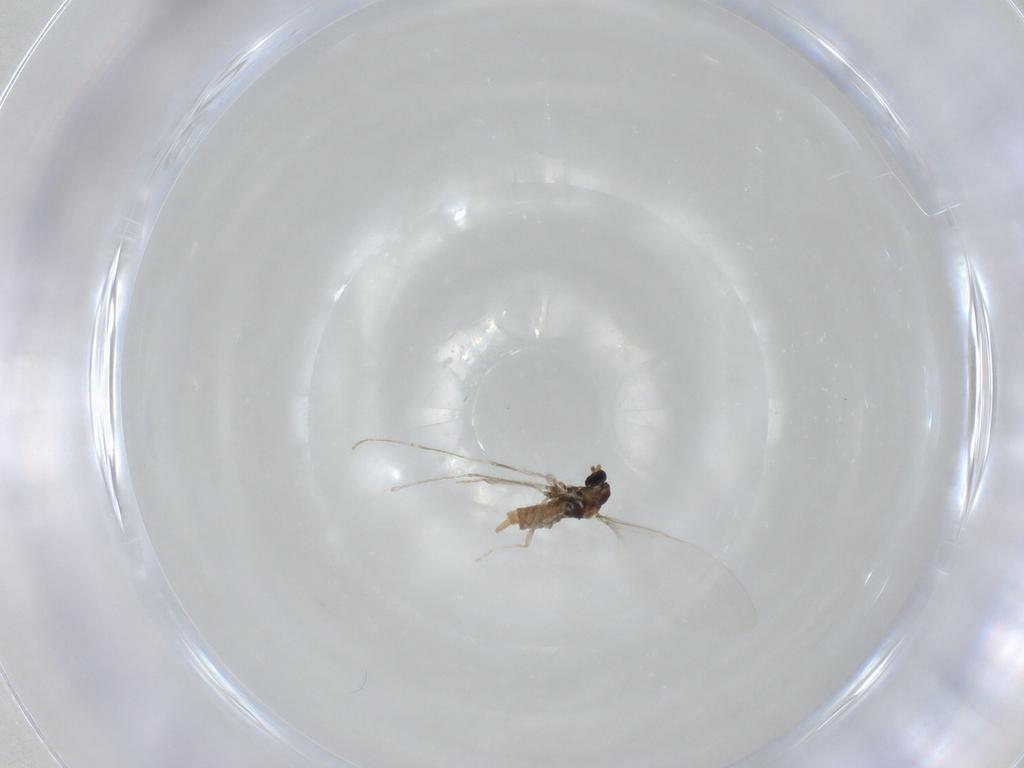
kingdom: Animalia
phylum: Arthropoda
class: Insecta
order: Diptera
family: Cecidomyiidae
